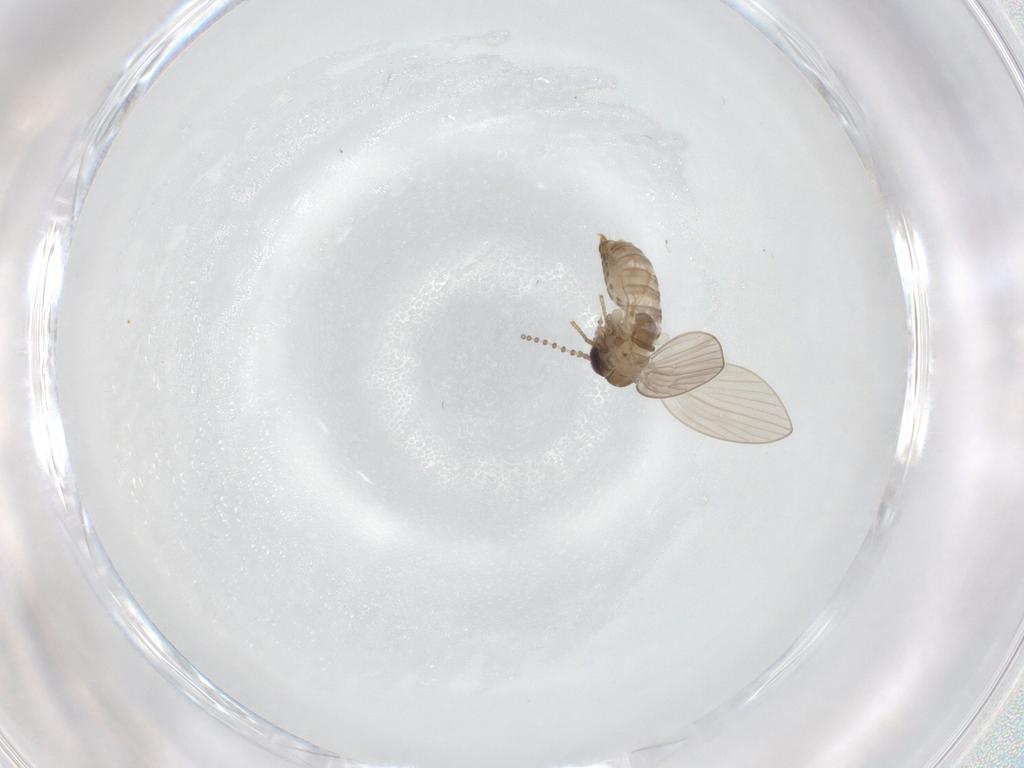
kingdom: Animalia
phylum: Arthropoda
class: Insecta
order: Diptera
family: Psychodidae
